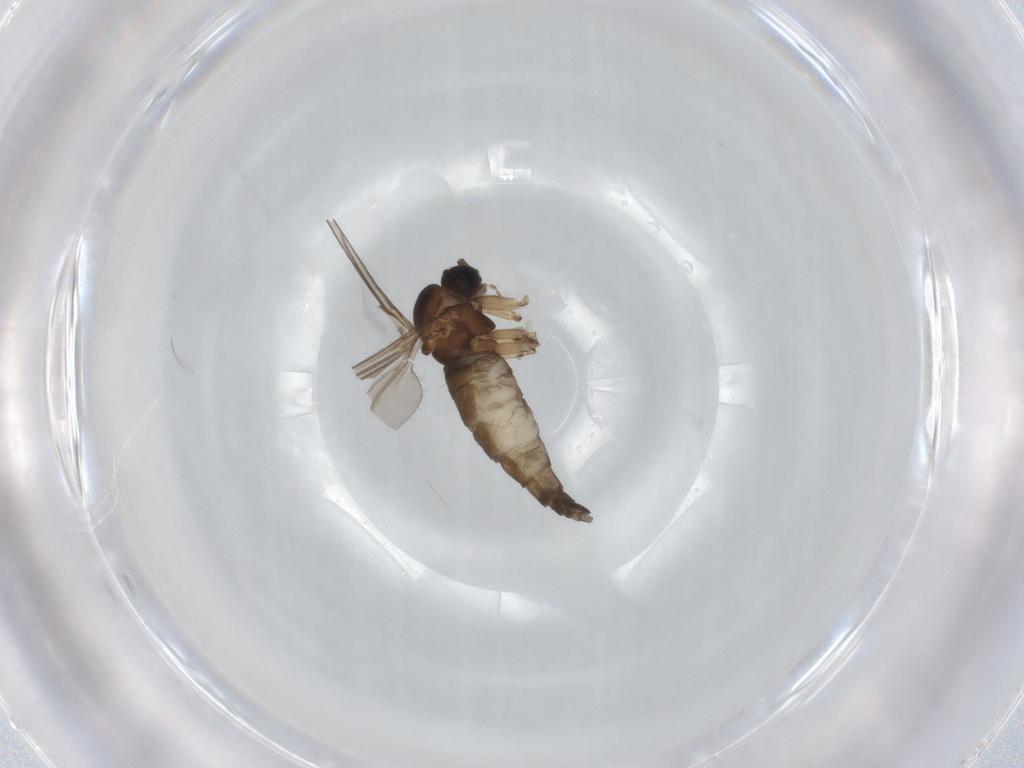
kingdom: Animalia
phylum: Arthropoda
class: Insecta
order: Diptera
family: Sciaridae
